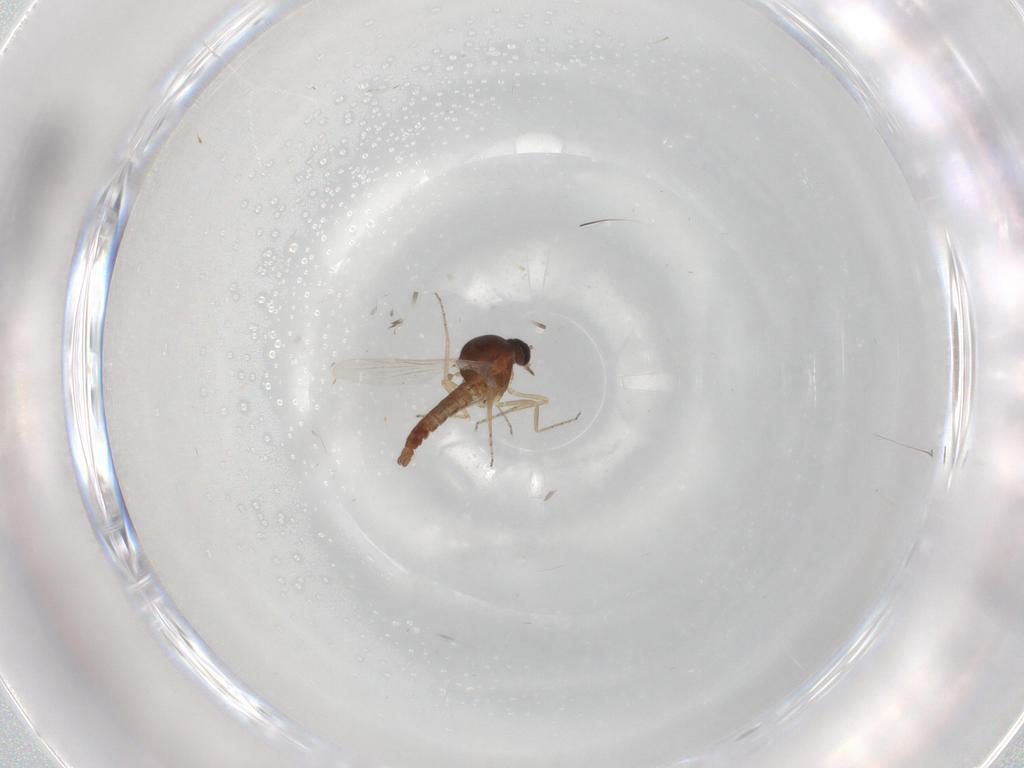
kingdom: Animalia
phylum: Arthropoda
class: Insecta
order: Diptera
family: Ceratopogonidae
